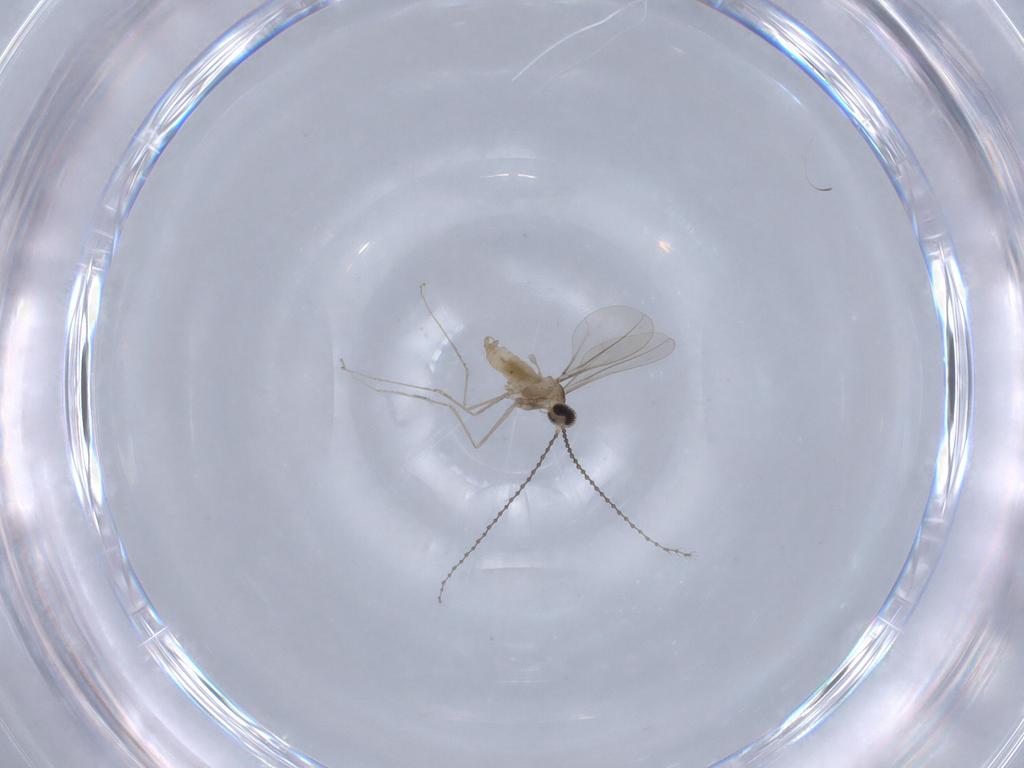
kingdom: Animalia
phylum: Arthropoda
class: Insecta
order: Diptera
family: Cecidomyiidae
